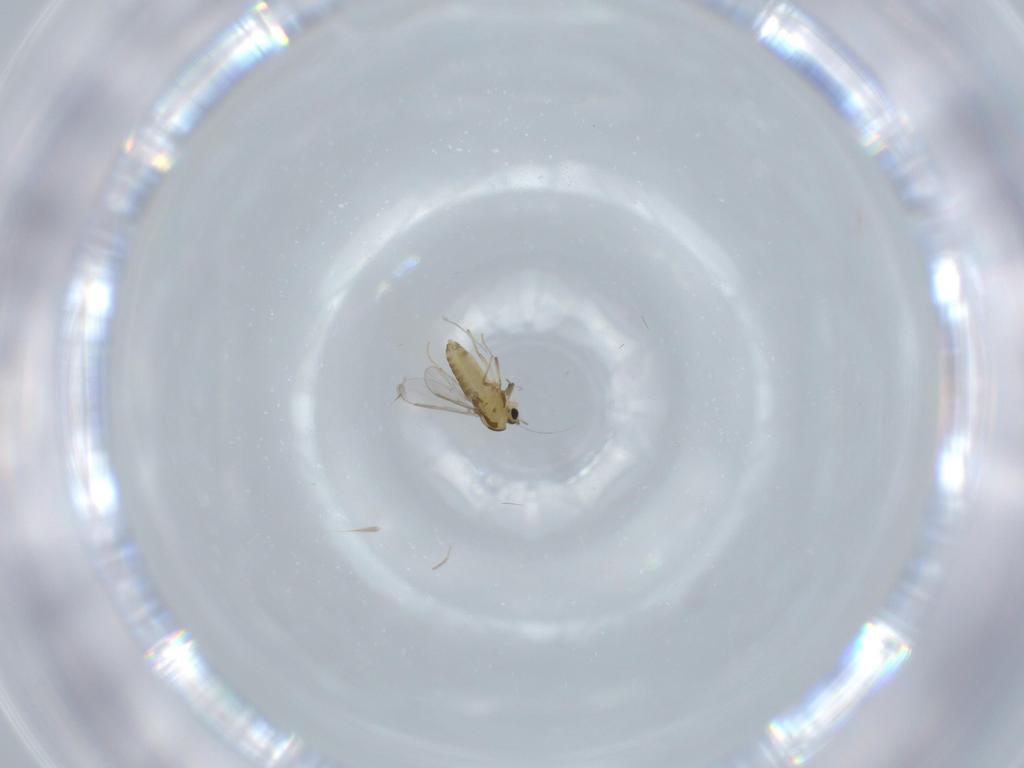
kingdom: Animalia
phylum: Arthropoda
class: Insecta
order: Diptera
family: Chironomidae
